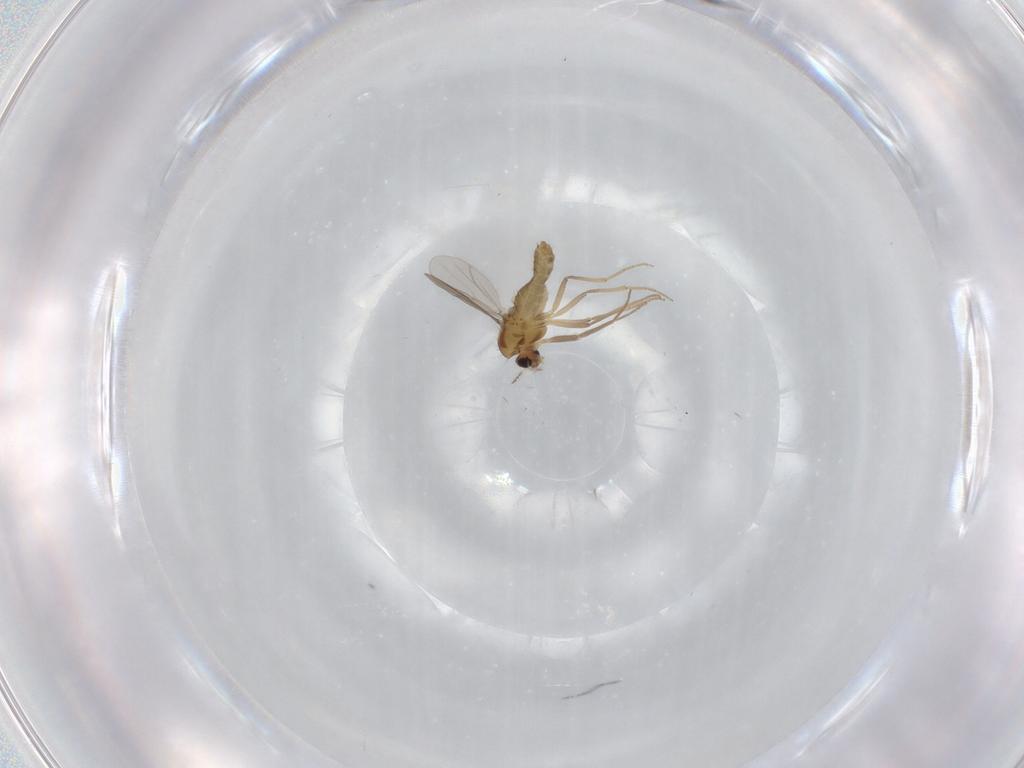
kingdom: Animalia
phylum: Arthropoda
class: Insecta
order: Diptera
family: Chironomidae
